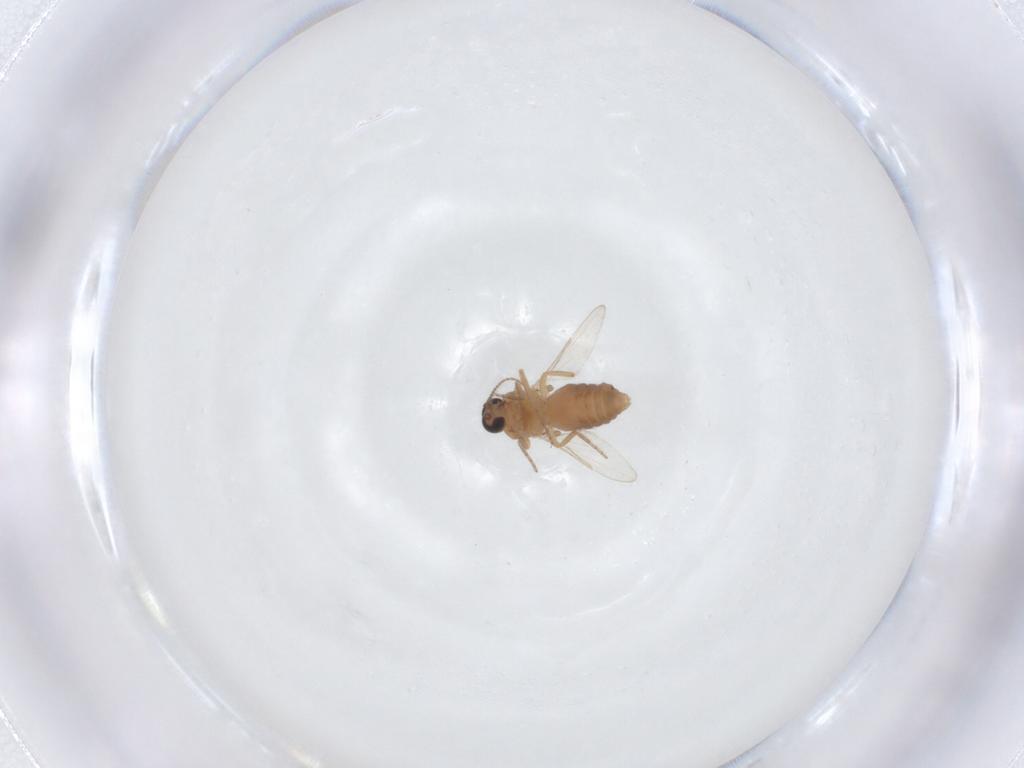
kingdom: Animalia
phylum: Arthropoda
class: Insecta
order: Diptera
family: Ceratopogonidae
